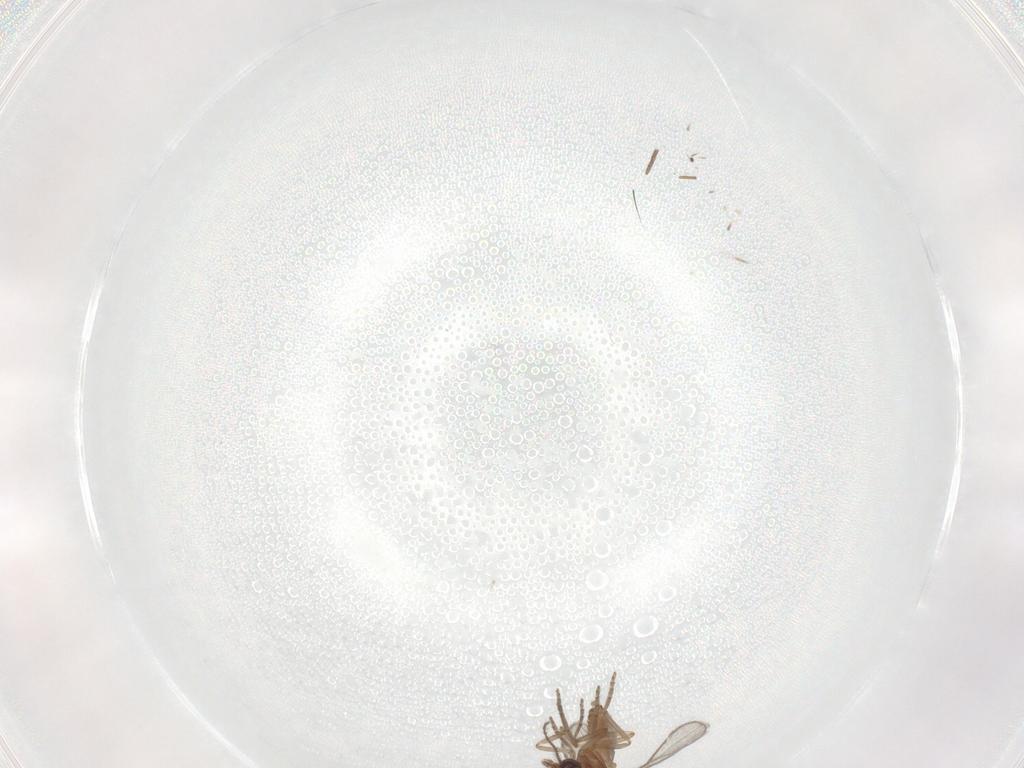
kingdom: Animalia
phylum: Arthropoda
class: Insecta
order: Diptera
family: Sciaridae
